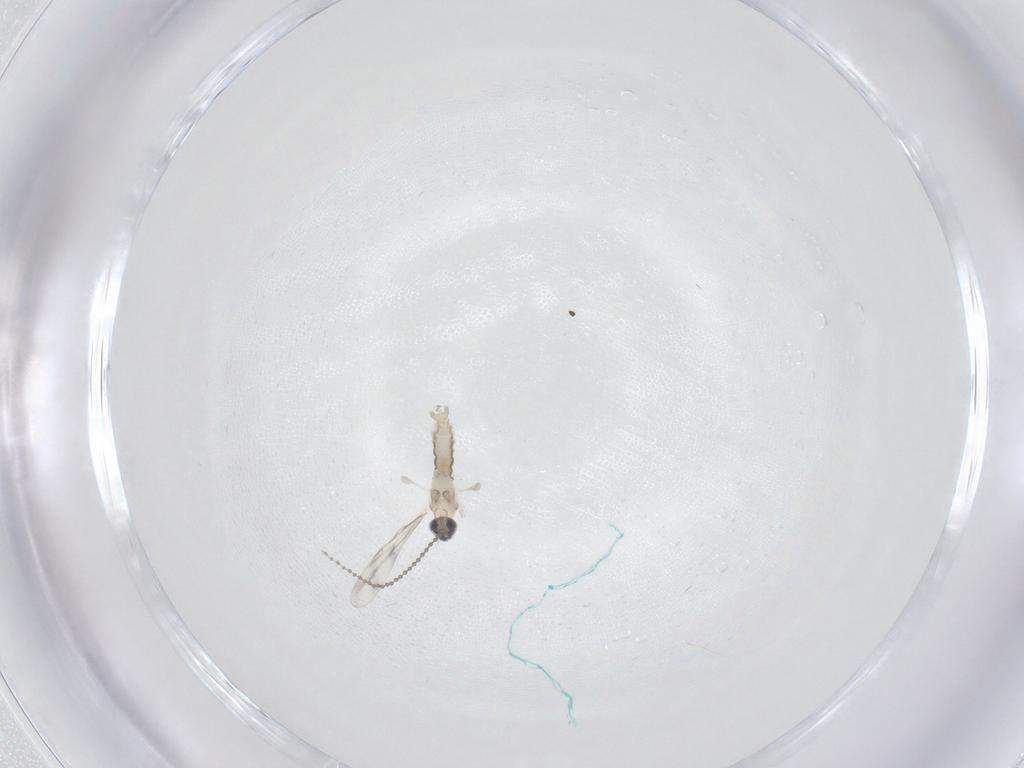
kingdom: Animalia
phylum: Arthropoda
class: Insecta
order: Diptera
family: Cecidomyiidae
